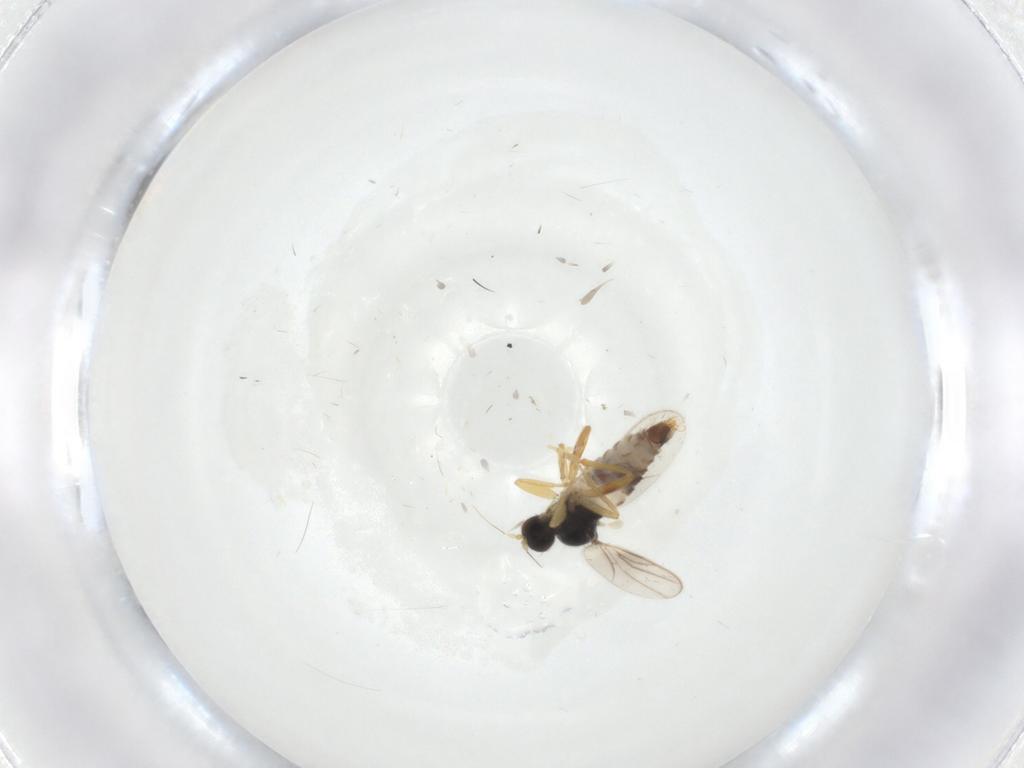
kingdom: Animalia
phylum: Arthropoda
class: Insecta
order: Diptera
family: Hybotidae
